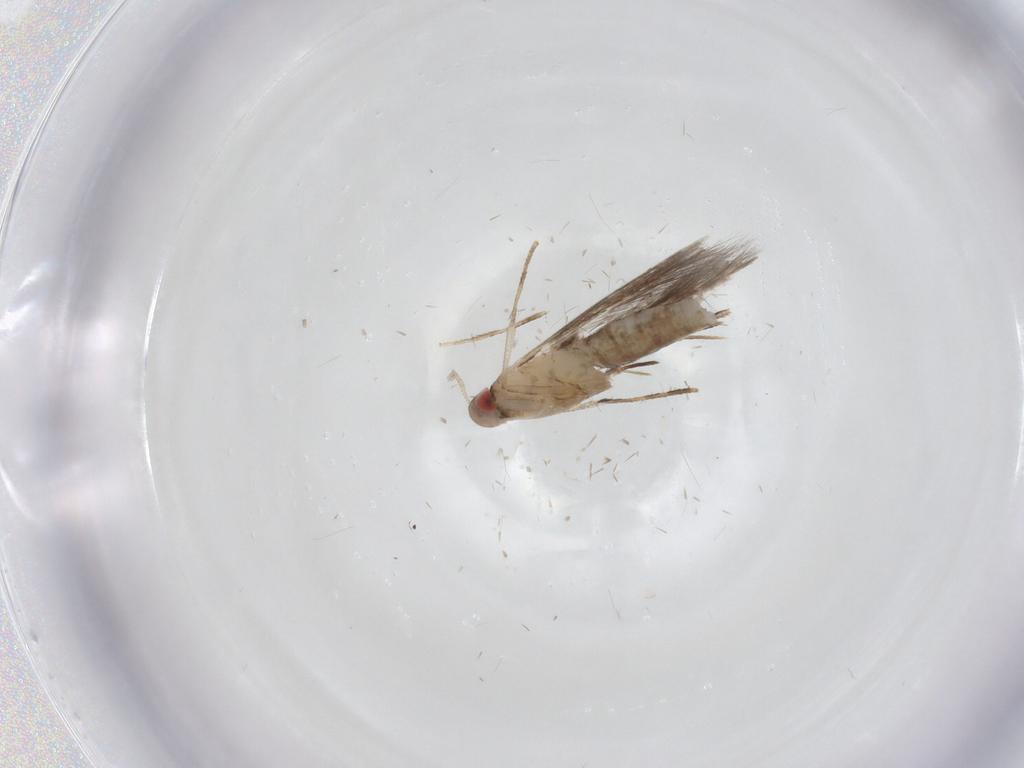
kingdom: Animalia
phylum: Arthropoda
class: Insecta
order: Lepidoptera
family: Cosmopterigidae
